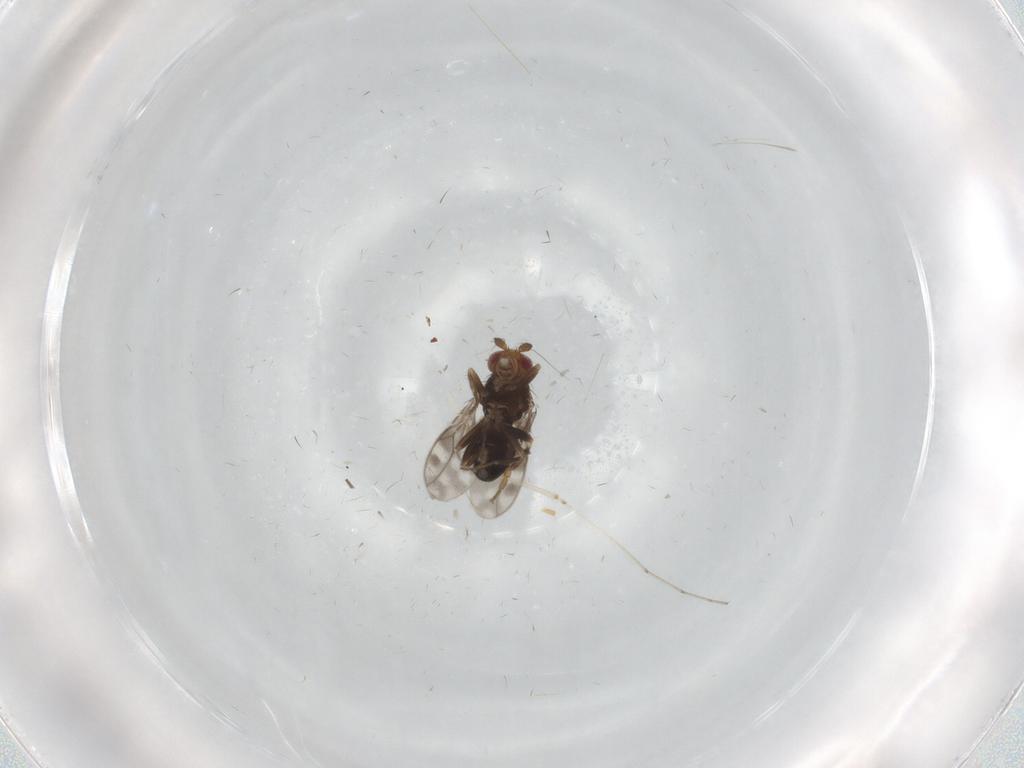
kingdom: Animalia
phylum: Arthropoda
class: Insecta
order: Diptera
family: Sphaeroceridae
